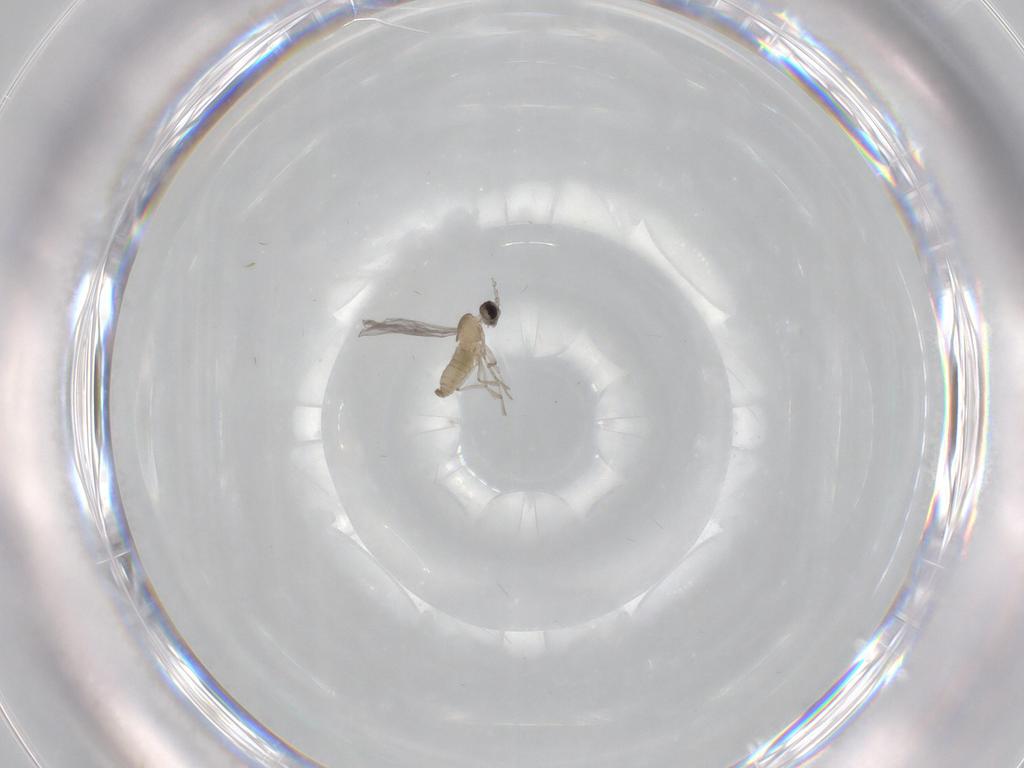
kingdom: Animalia
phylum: Arthropoda
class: Insecta
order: Diptera
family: Cecidomyiidae
